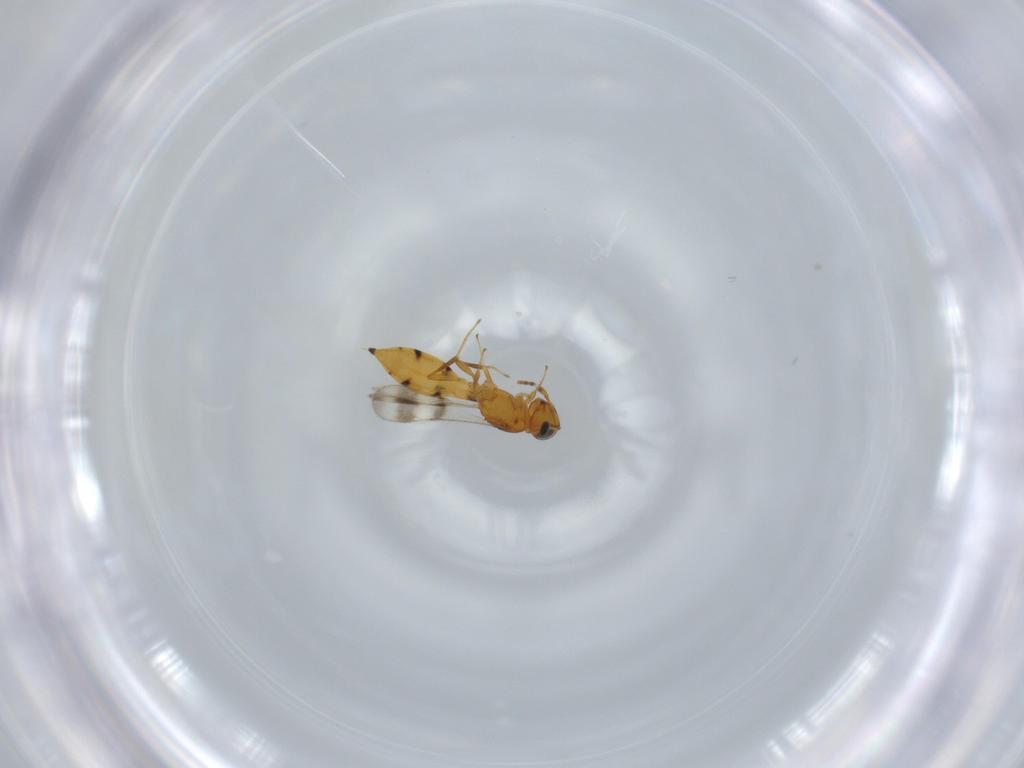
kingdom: Animalia
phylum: Arthropoda
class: Insecta
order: Hymenoptera
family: Scelionidae
